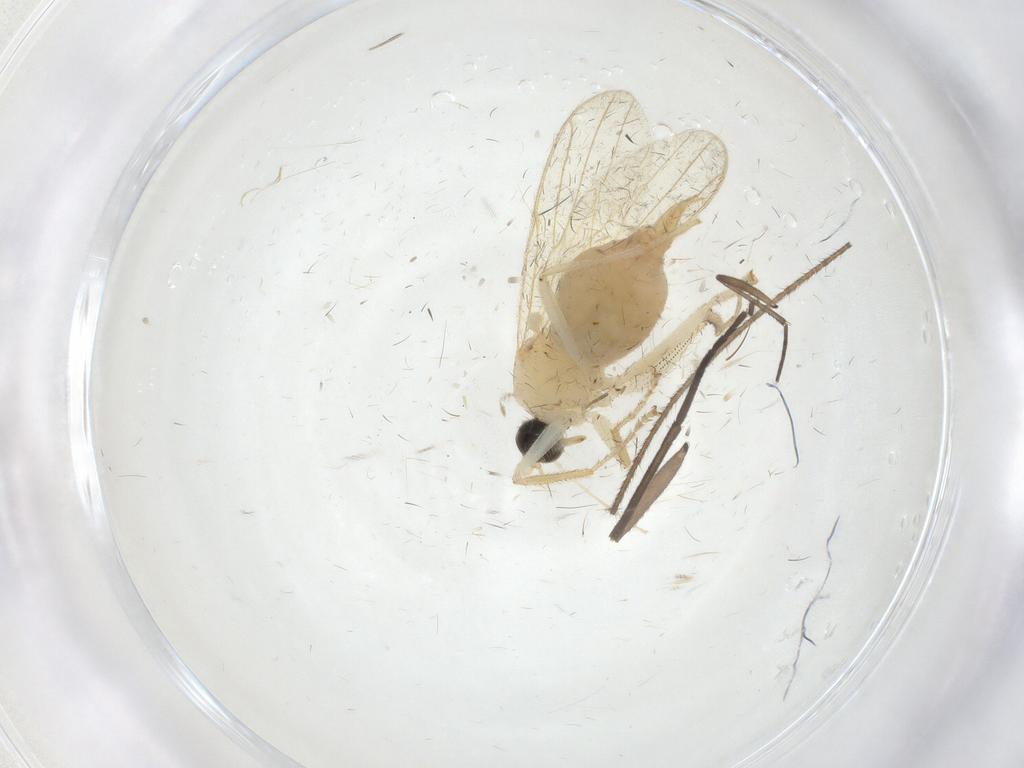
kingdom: Animalia
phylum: Arthropoda
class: Insecta
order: Diptera
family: Hybotidae
